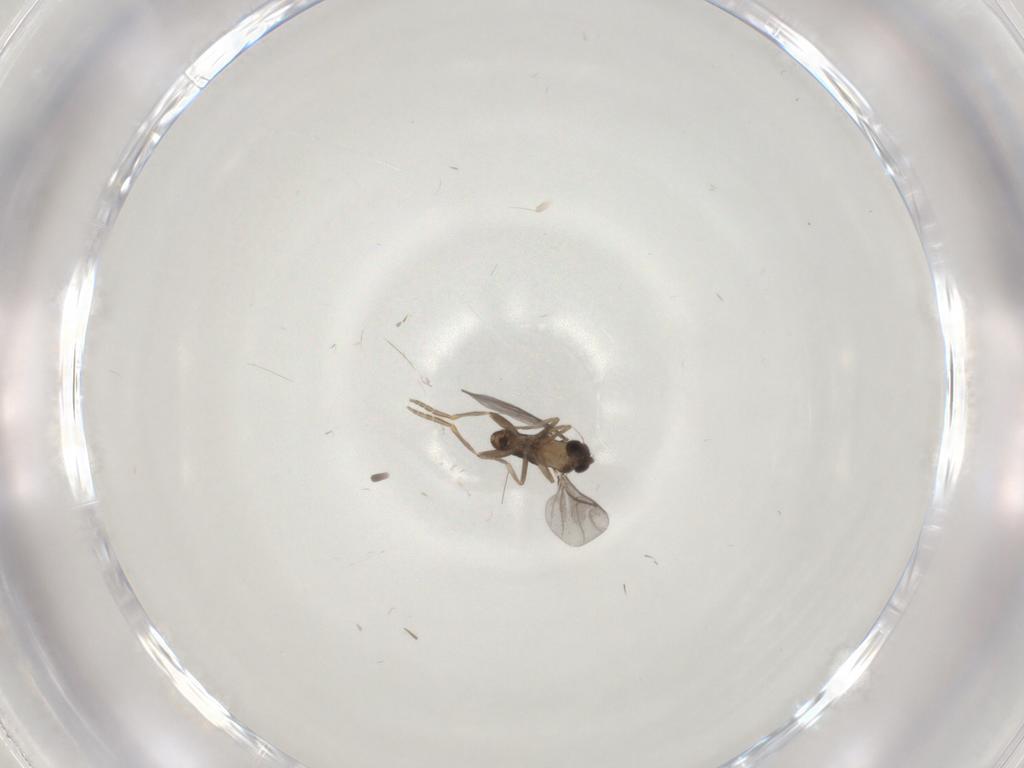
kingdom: Animalia
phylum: Arthropoda
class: Insecta
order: Diptera
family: Chironomidae
